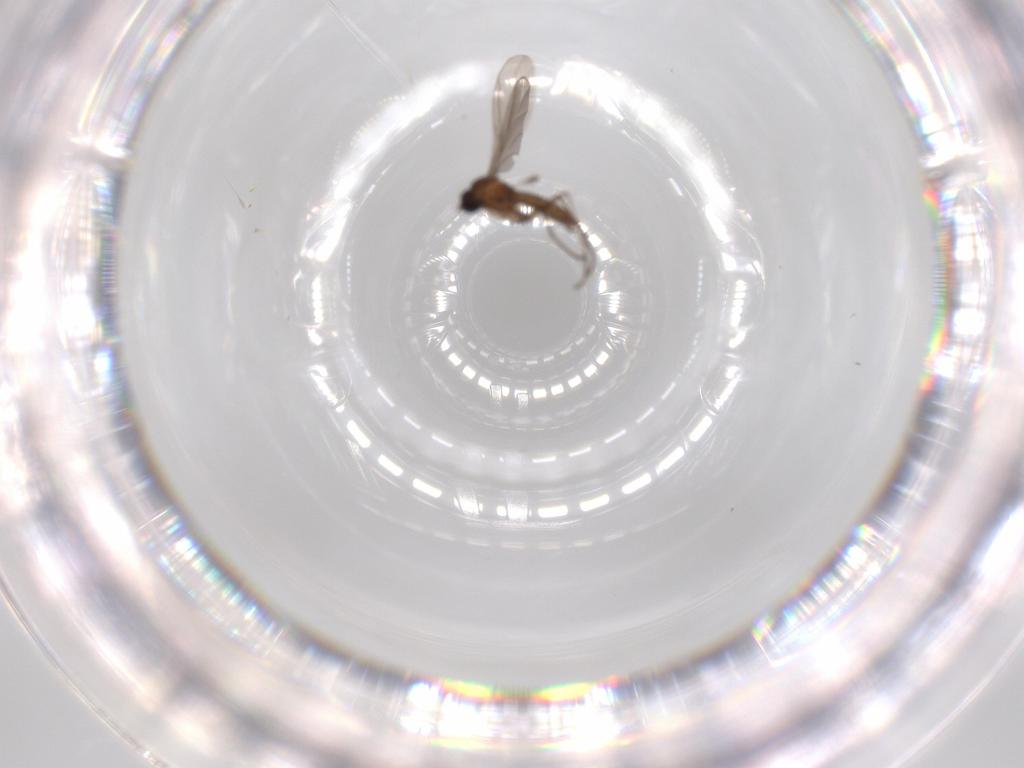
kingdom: Animalia
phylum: Arthropoda
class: Insecta
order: Diptera
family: Sciaridae
